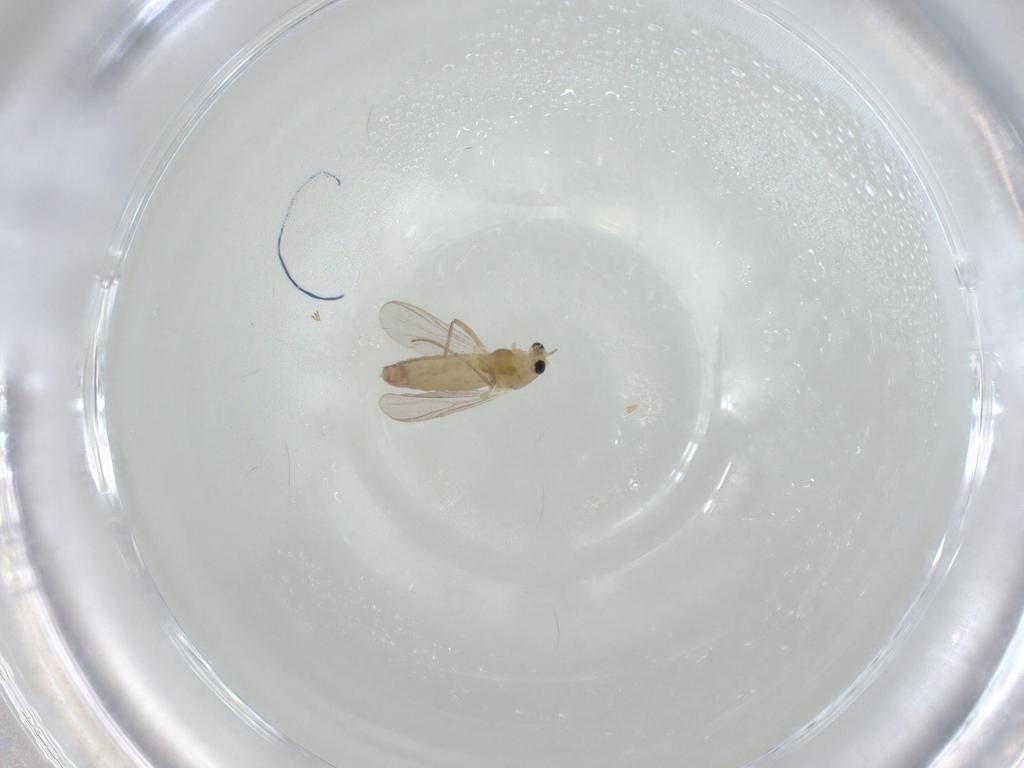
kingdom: Animalia
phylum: Arthropoda
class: Insecta
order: Diptera
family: Chironomidae
